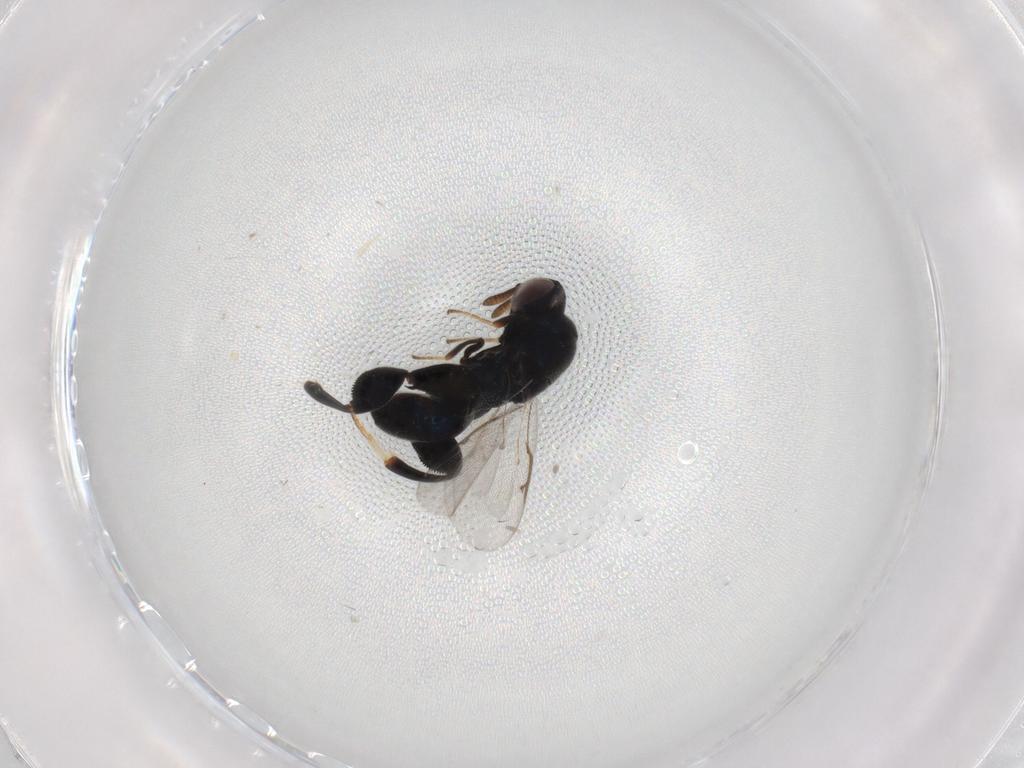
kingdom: Animalia
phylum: Arthropoda
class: Insecta
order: Hymenoptera
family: Torymidae
